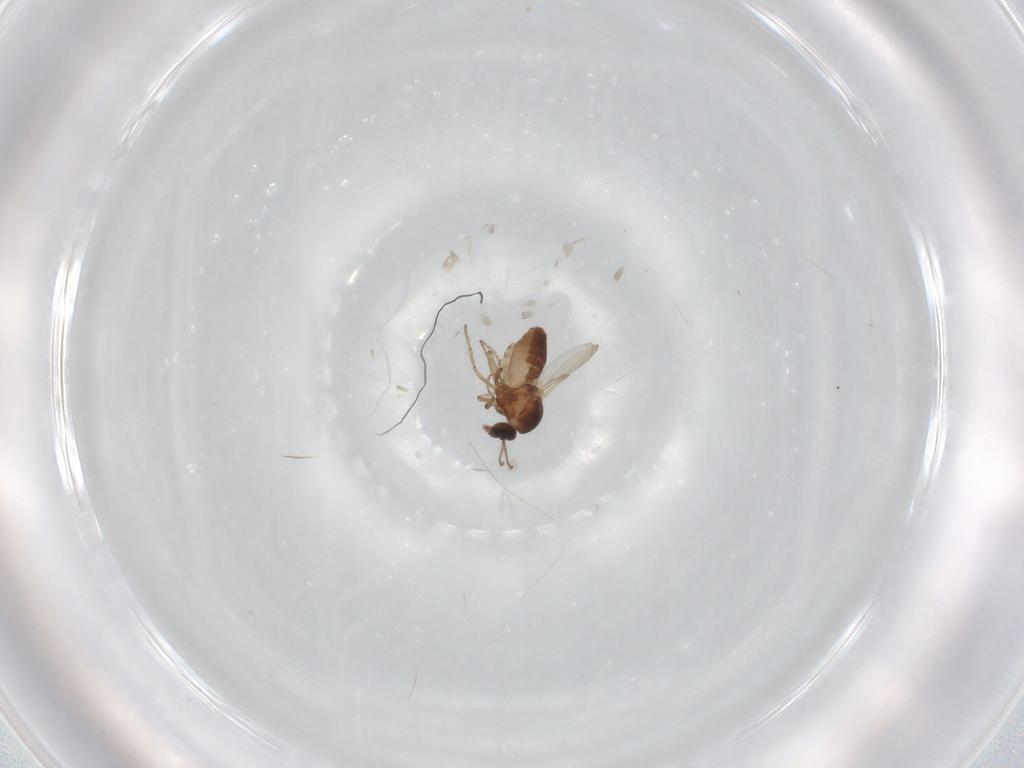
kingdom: Animalia
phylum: Arthropoda
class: Insecta
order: Diptera
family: Ceratopogonidae
